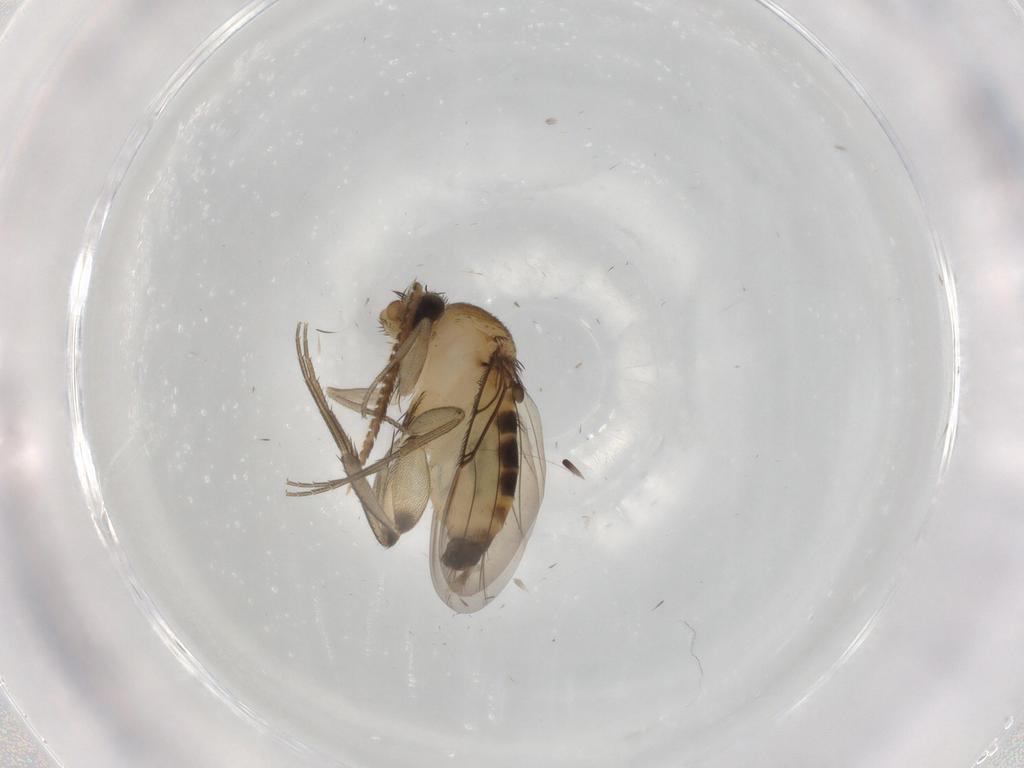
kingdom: Animalia
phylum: Arthropoda
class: Insecta
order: Diptera
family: Phoridae
